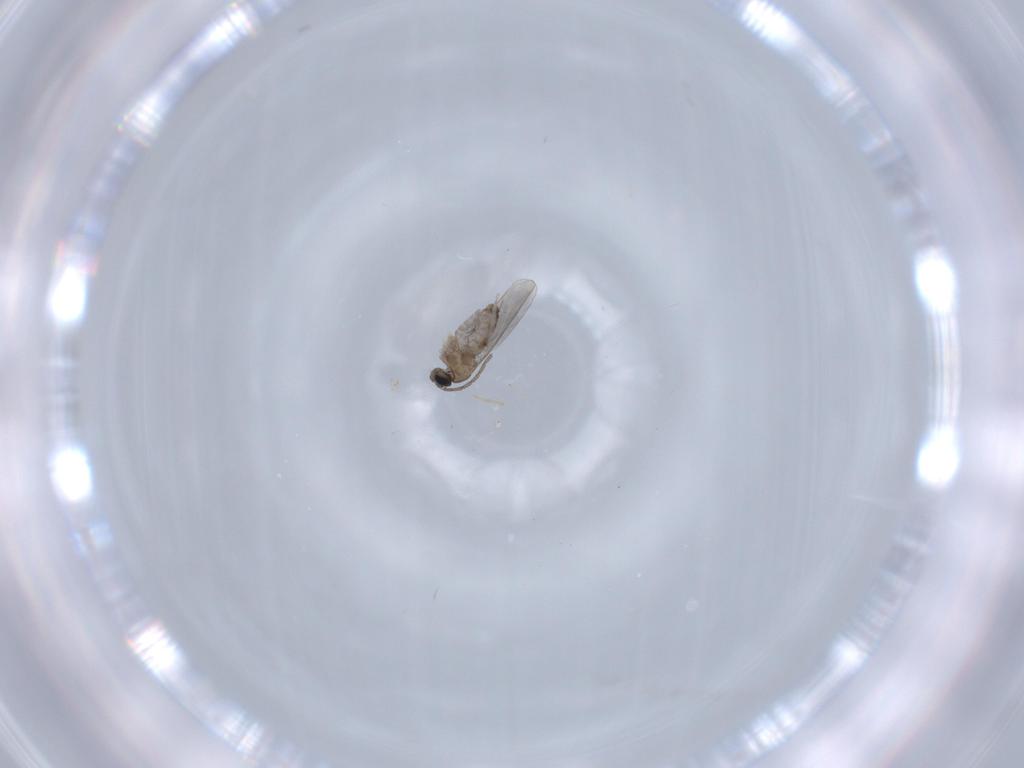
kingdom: Animalia
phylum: Arthropoda
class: Insecta
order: Diptera
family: Cecidomyiidae
